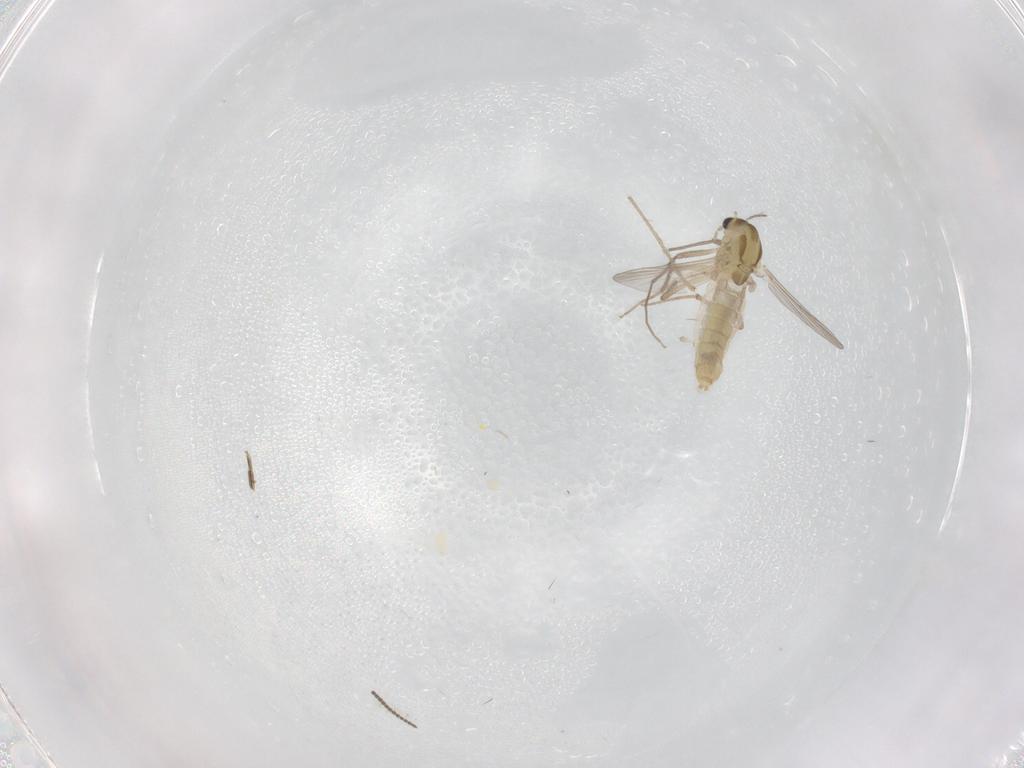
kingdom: Animalia
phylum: Arthropoda
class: Insecta
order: Diptera
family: Chironomidae
